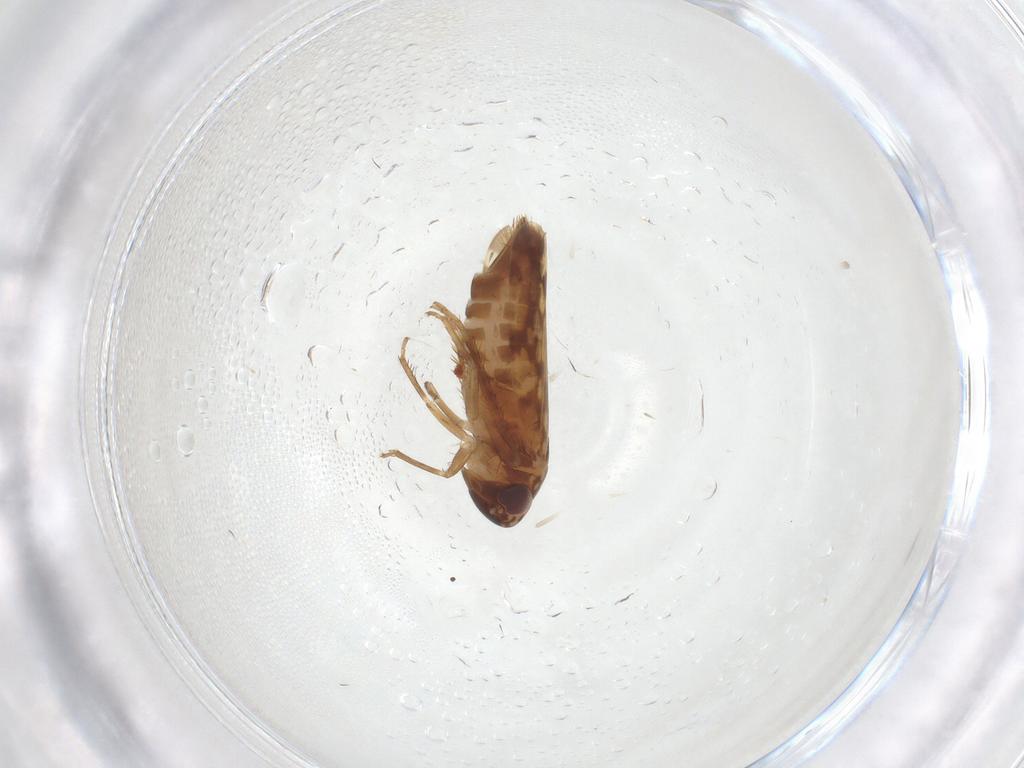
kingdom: Animalia
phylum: Arthropoda
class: Insecta
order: Hemiptera
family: Cicadellidae
